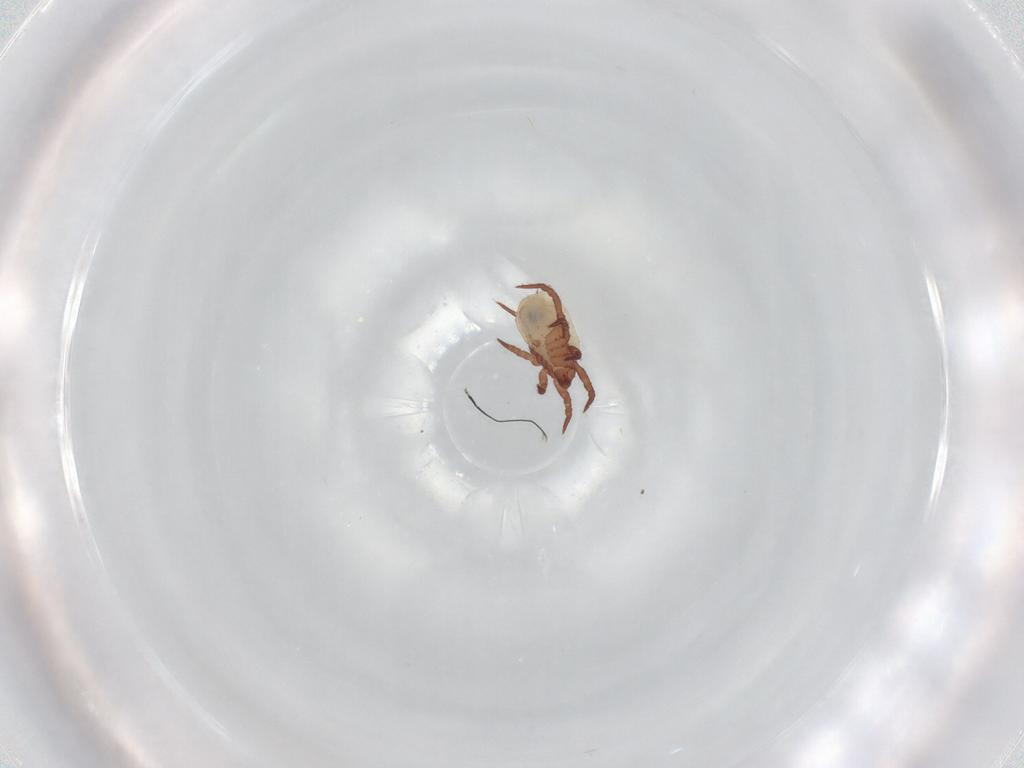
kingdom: Animalia
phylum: Arthropoda
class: Arachnida
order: Sarcoptiformes
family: Nothridae
